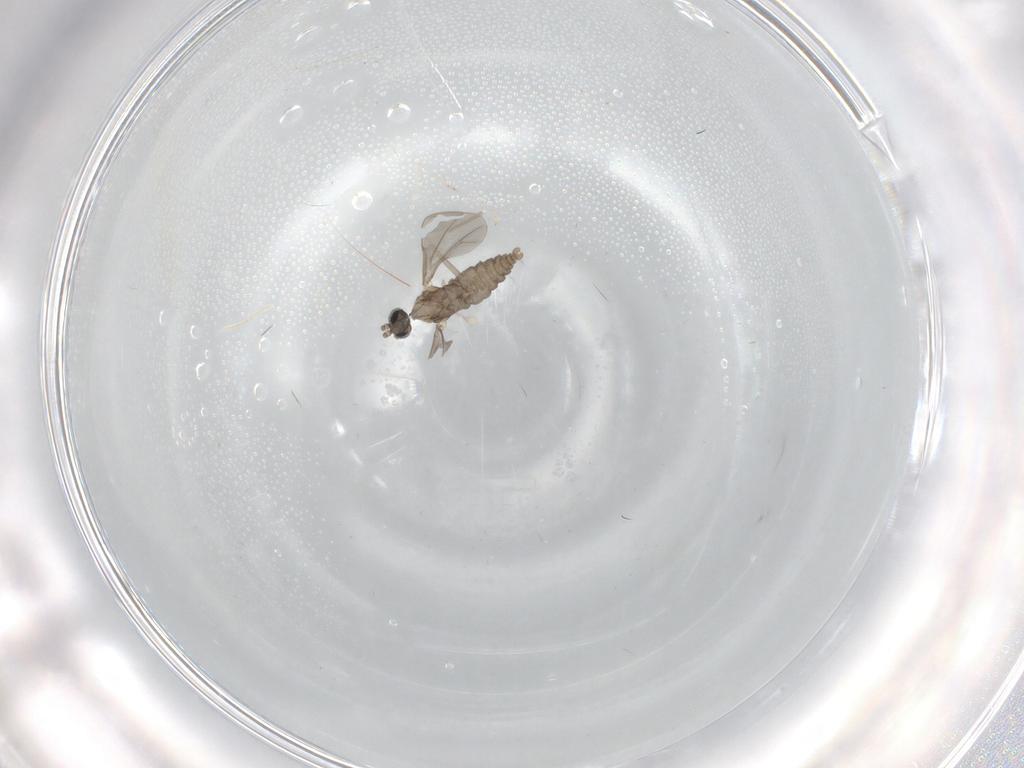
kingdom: Animalia
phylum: Arthropoda
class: Insecta
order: Diptera
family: Cecidomyiidae
